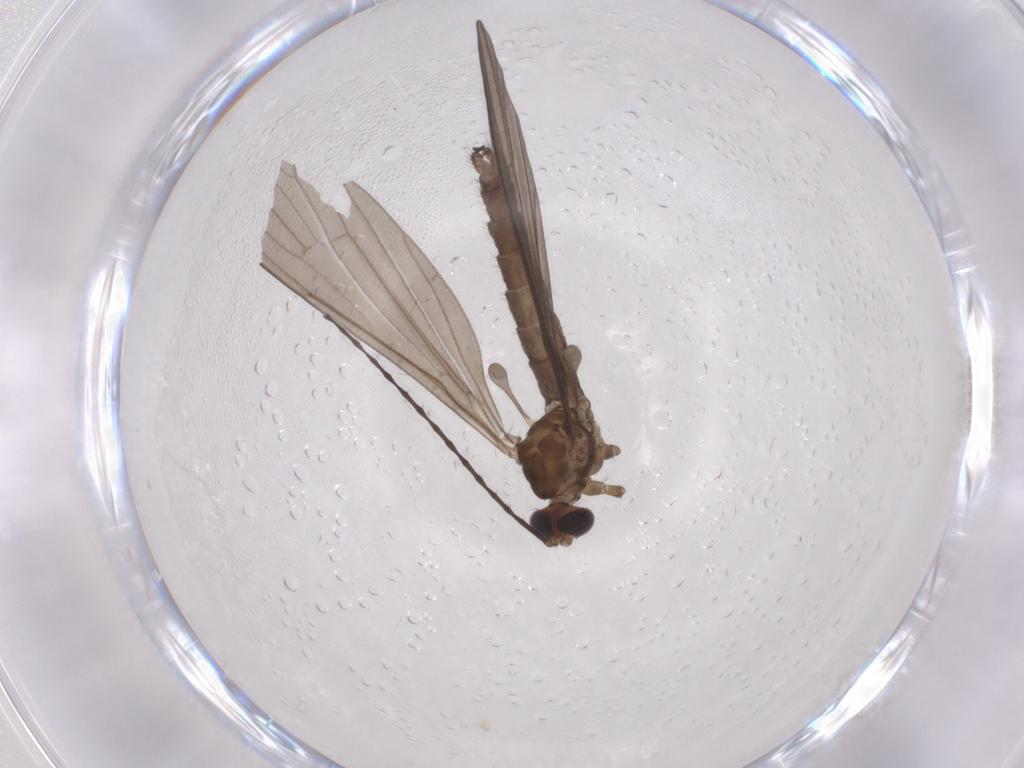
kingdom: Animalia
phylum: Arthropoda
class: Insecta
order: Diptera
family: Limoniidae
